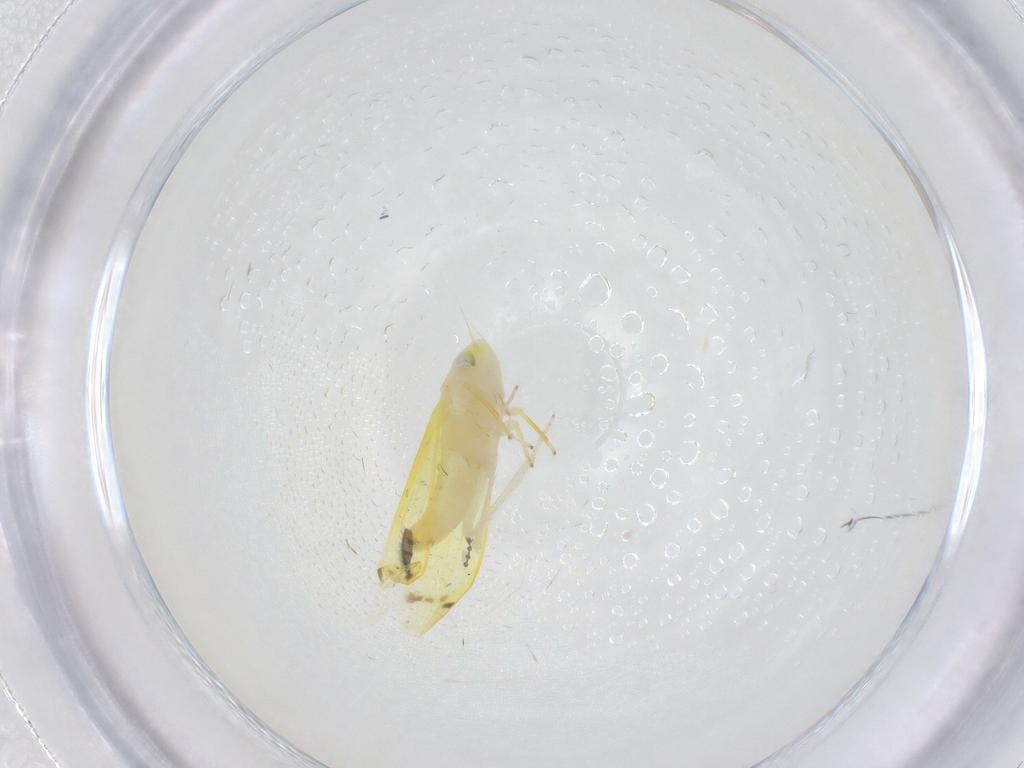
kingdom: Animalia
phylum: Arthropoda
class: Insecta
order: Hemiptera
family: Cicadellidae
